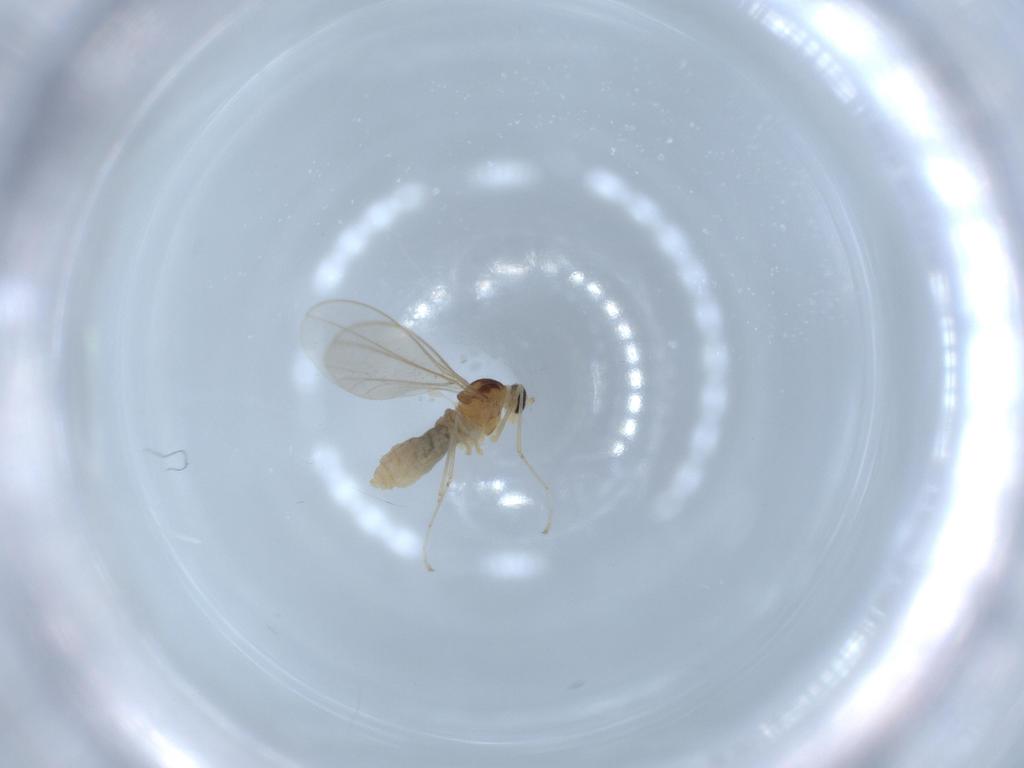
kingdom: Animalia
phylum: Arthropoda
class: Insecta
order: Diptera
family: Cecidomyiidae
